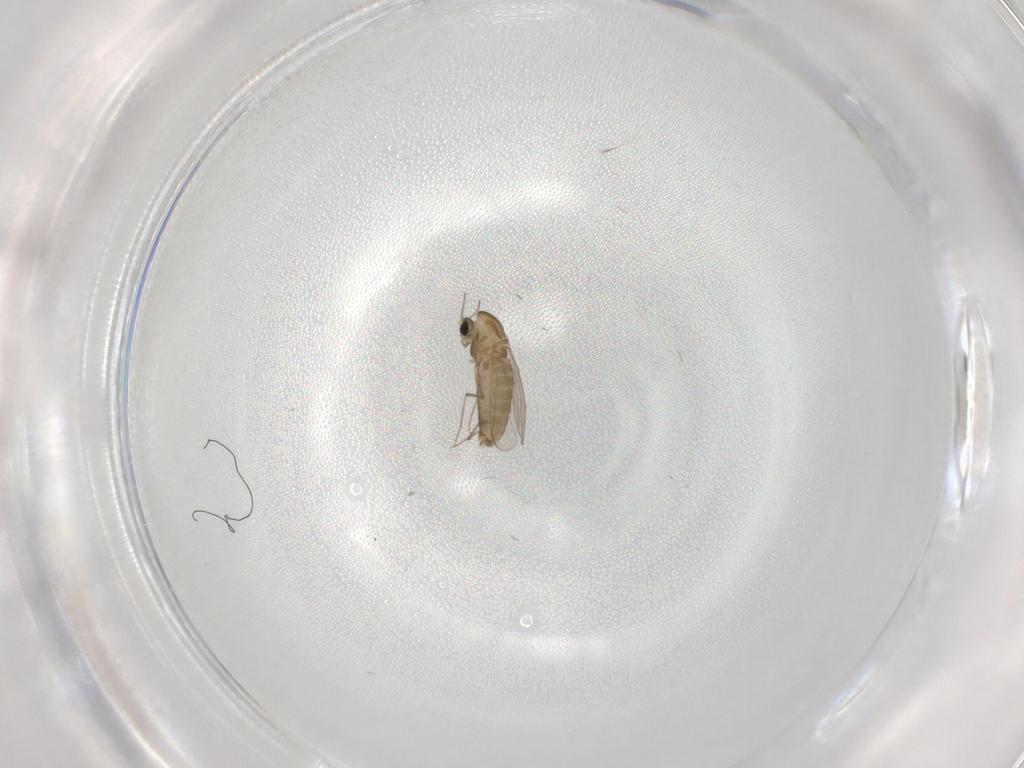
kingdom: Animalia
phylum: Arthropoda
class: Insecta
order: Diptera
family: Chironomidae
